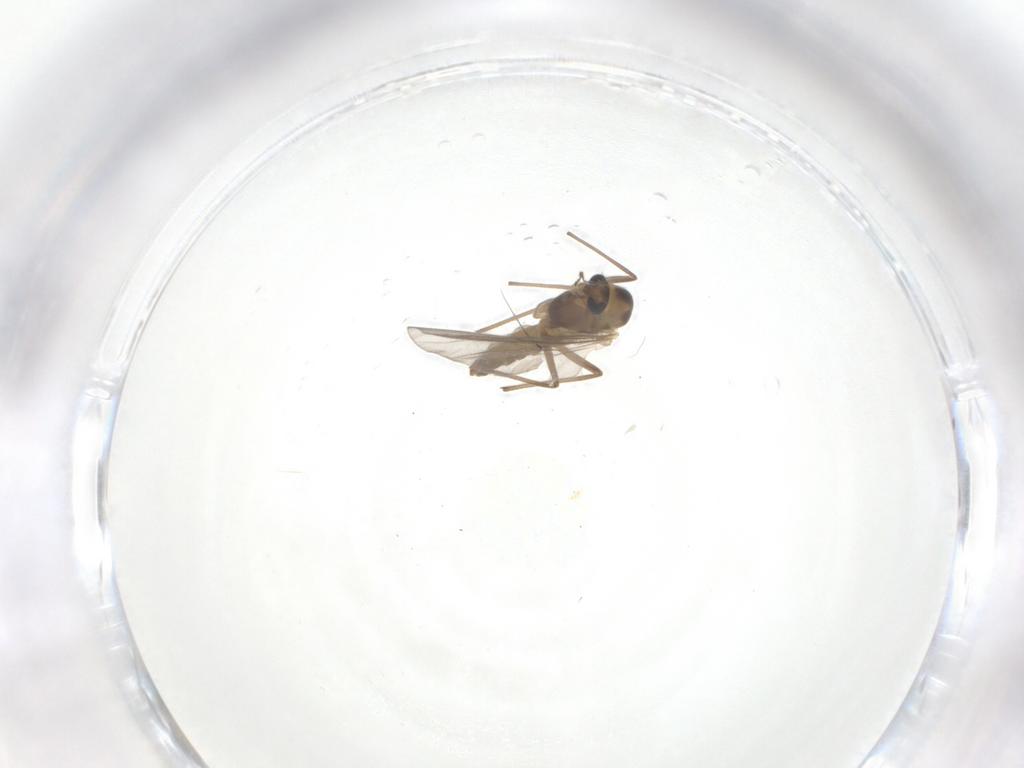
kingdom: Animalia
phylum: Arthropoda
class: Insecta
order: Diptera
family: Chironomidae
